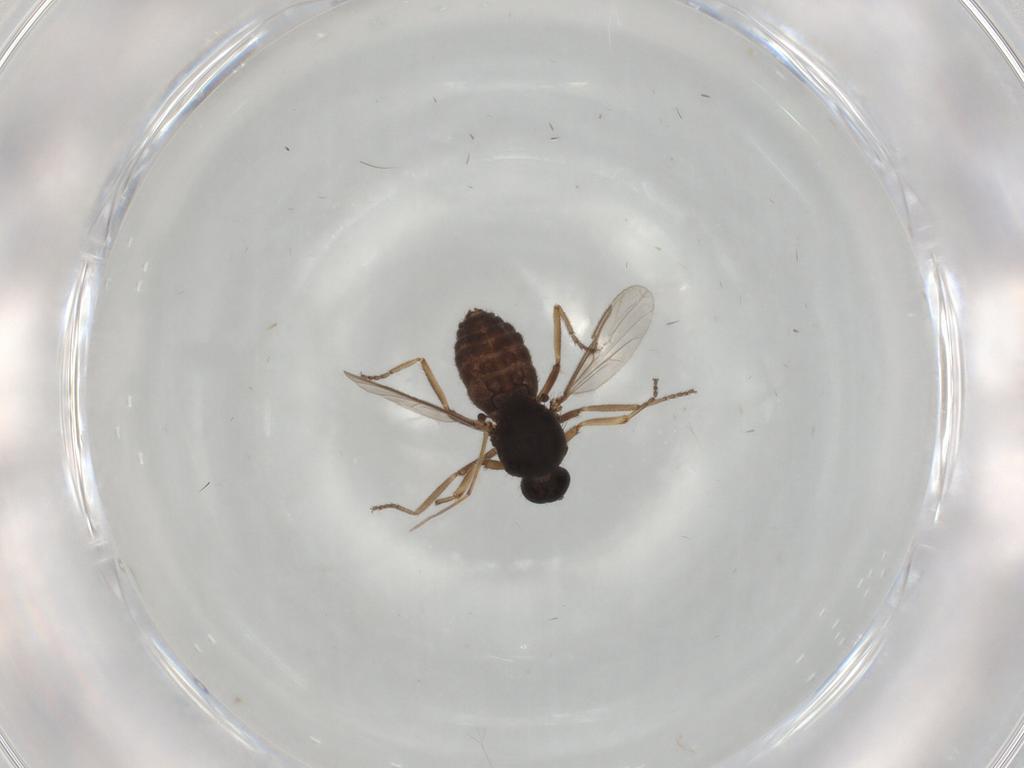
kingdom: Animalia
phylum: Arthropoda
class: Insecta
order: Diptera
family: Ceratopogonidae
